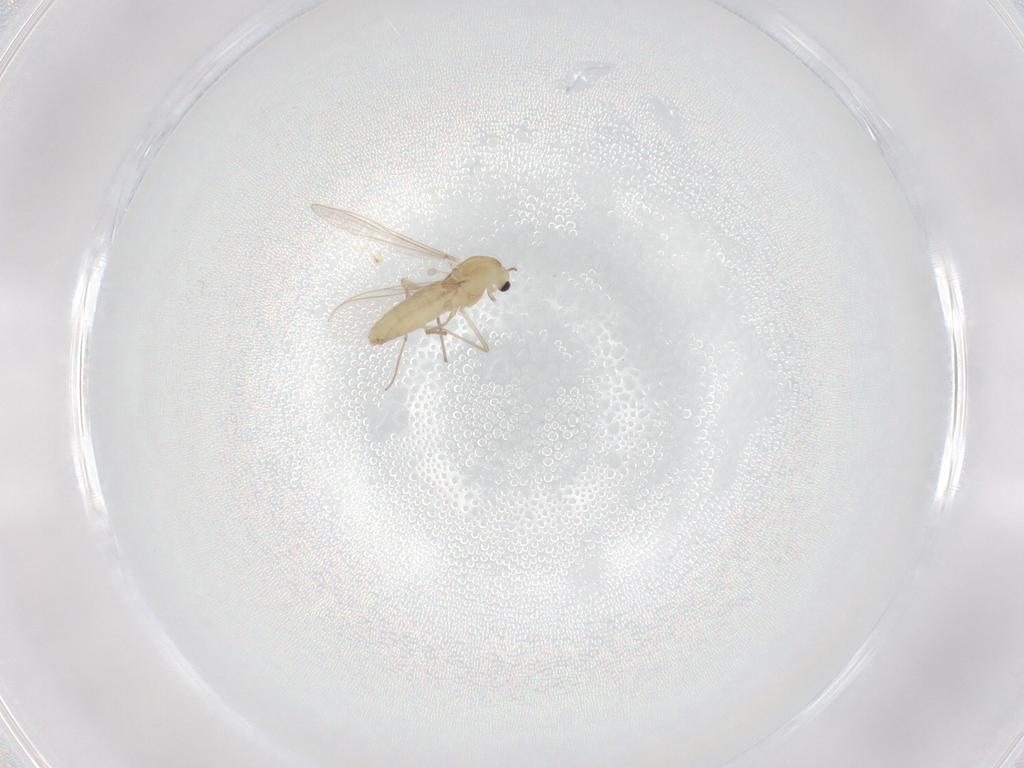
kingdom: Animalia
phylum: Arthropoda
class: Insecta
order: Diptera
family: Chironomidae
